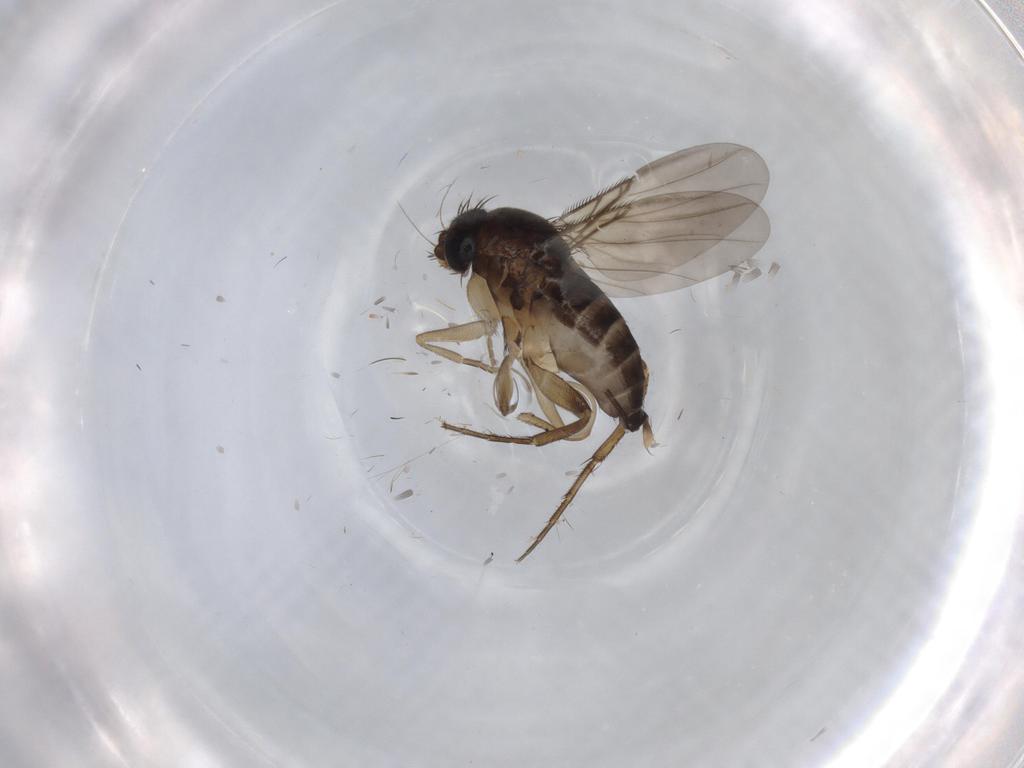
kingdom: Animalia
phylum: Arthropoda
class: Insecta
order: Diptera
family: Phoridae
